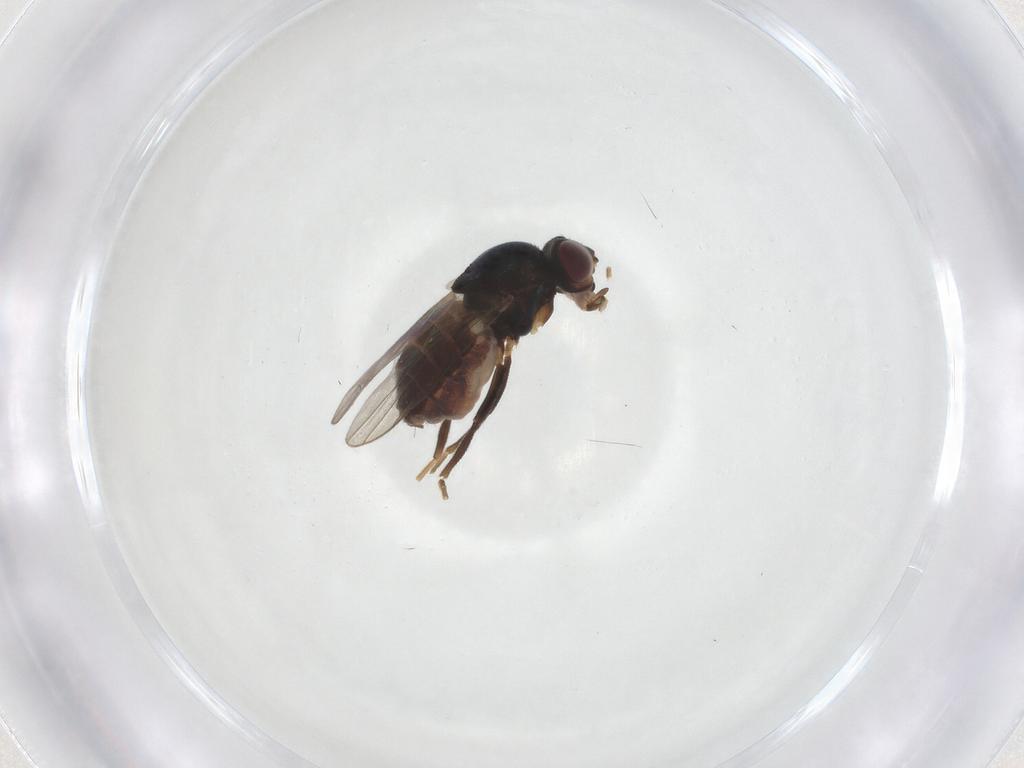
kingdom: Animalia
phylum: Arthropoda
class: Insecta
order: Diptera
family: Chloropidae
